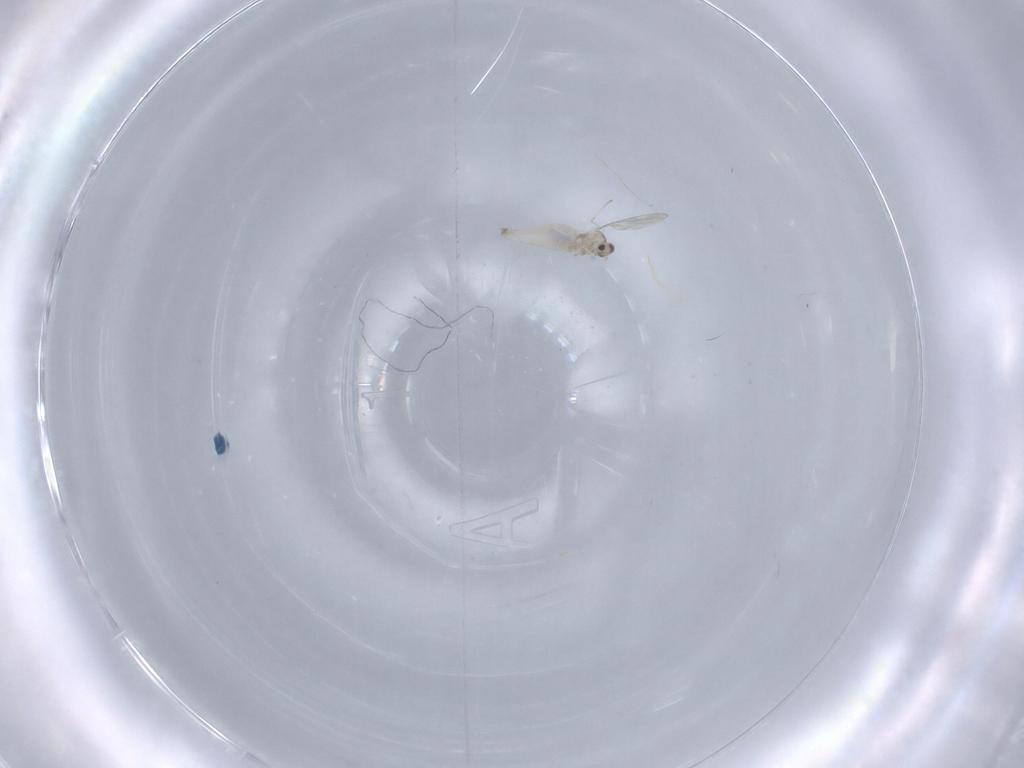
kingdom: Animalia
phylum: Arthropoda
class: Insecta
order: Diptera
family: Cecidomyiidae
